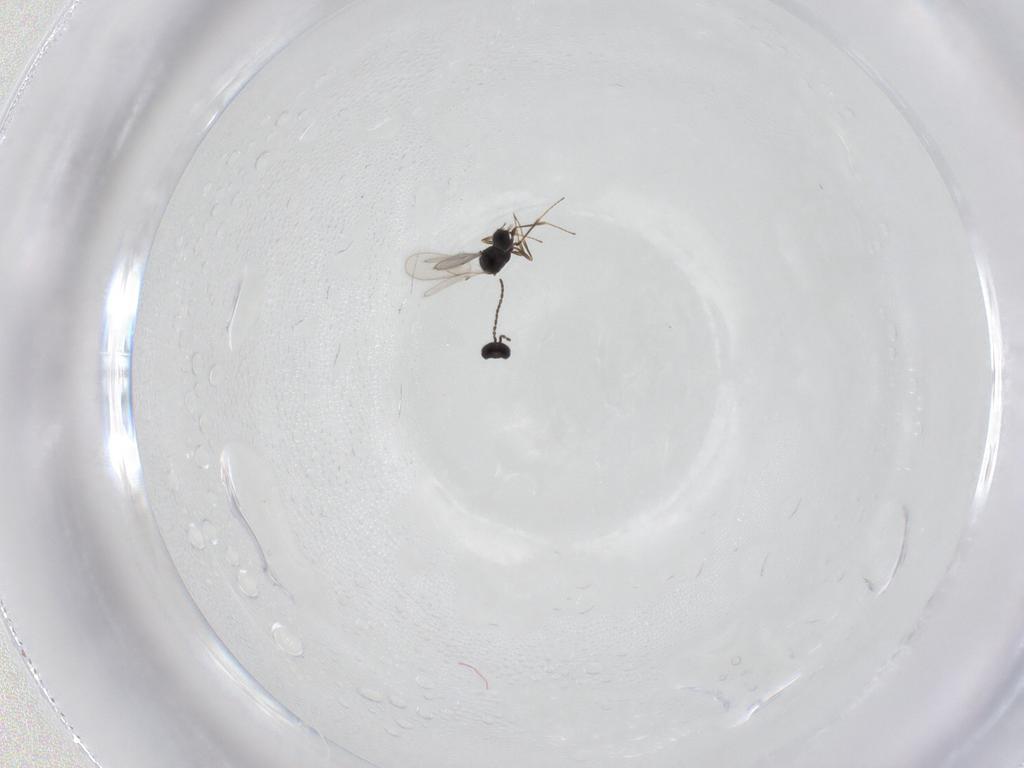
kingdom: Animalia
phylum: Arthropoda
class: Insecta
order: Hymenoptera
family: Scelionidae
